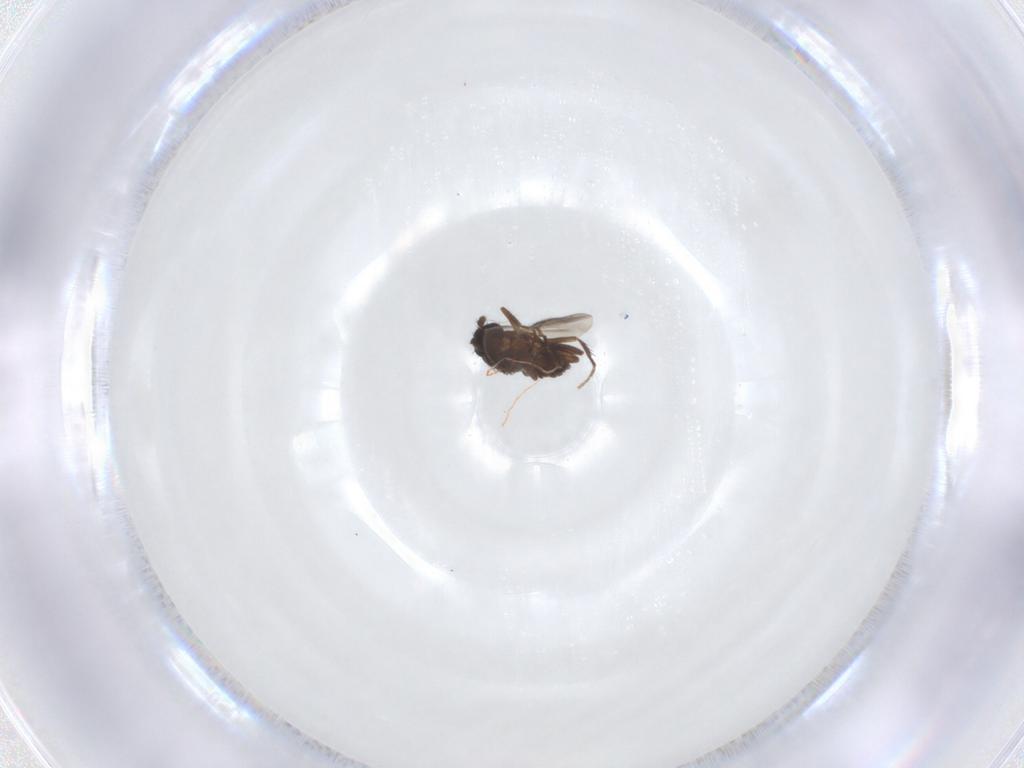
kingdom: Animalia
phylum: Arthropoda
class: Insecta
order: Diptera
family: Sphaeroceridae
